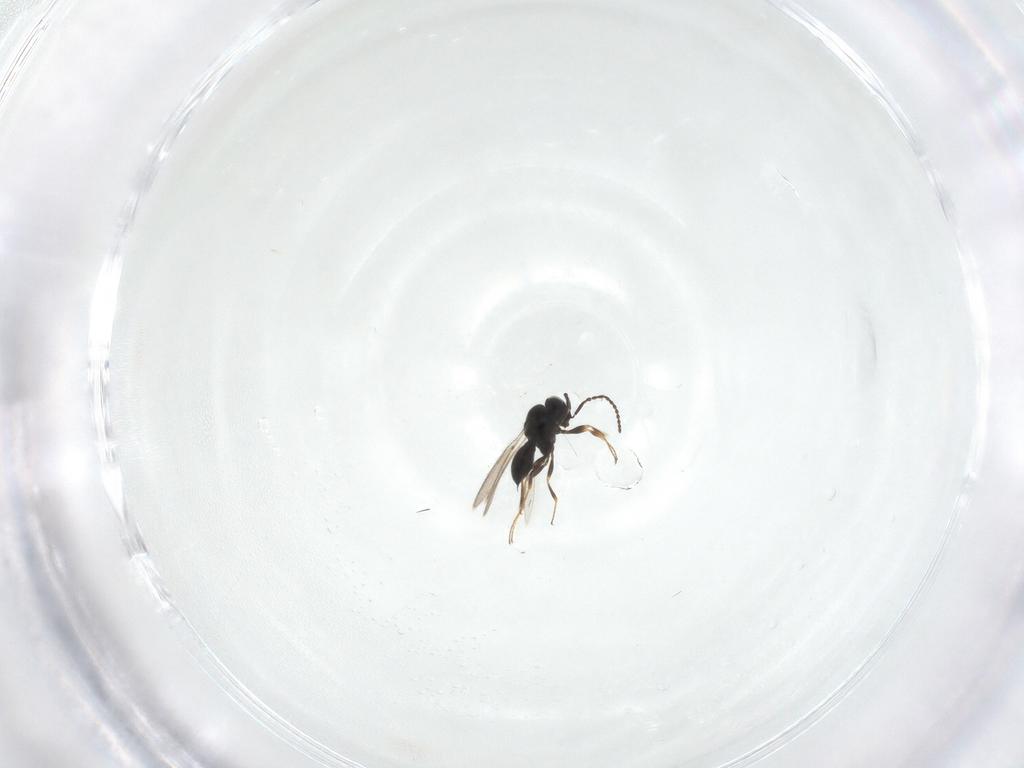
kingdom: Animalia
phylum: Arthropoda
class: Insecta
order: Hymenoptera
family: Scelionidae
